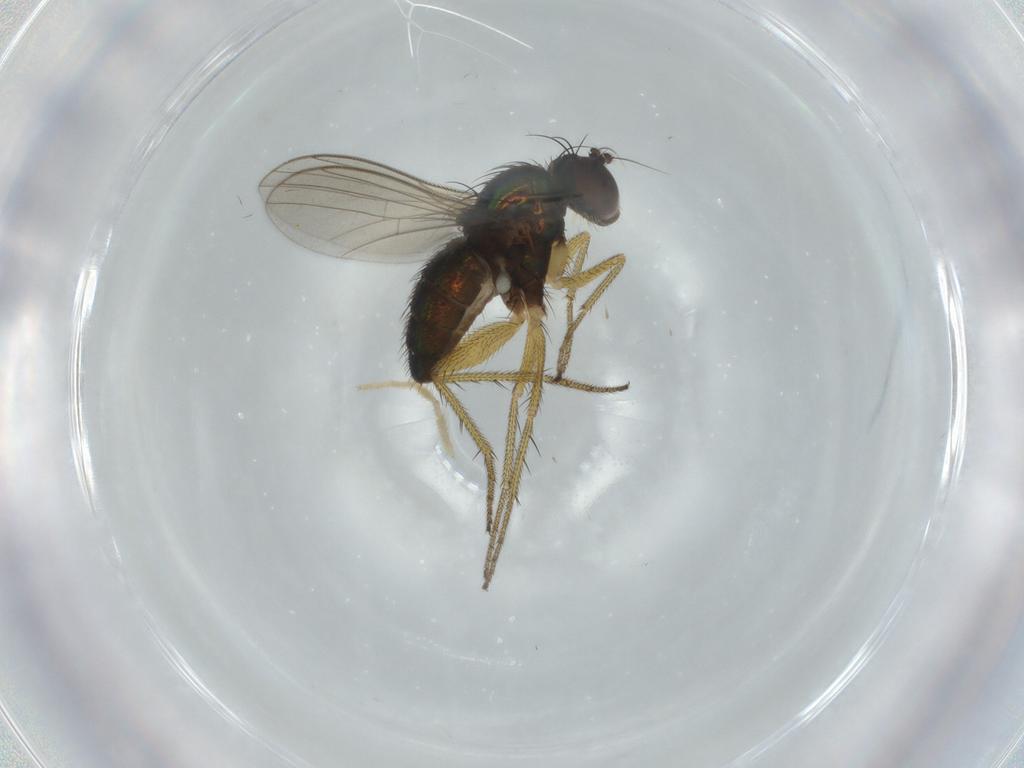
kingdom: Animalia
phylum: Arthropoda
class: Insecta
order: Diptera
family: Dolichopodidae
